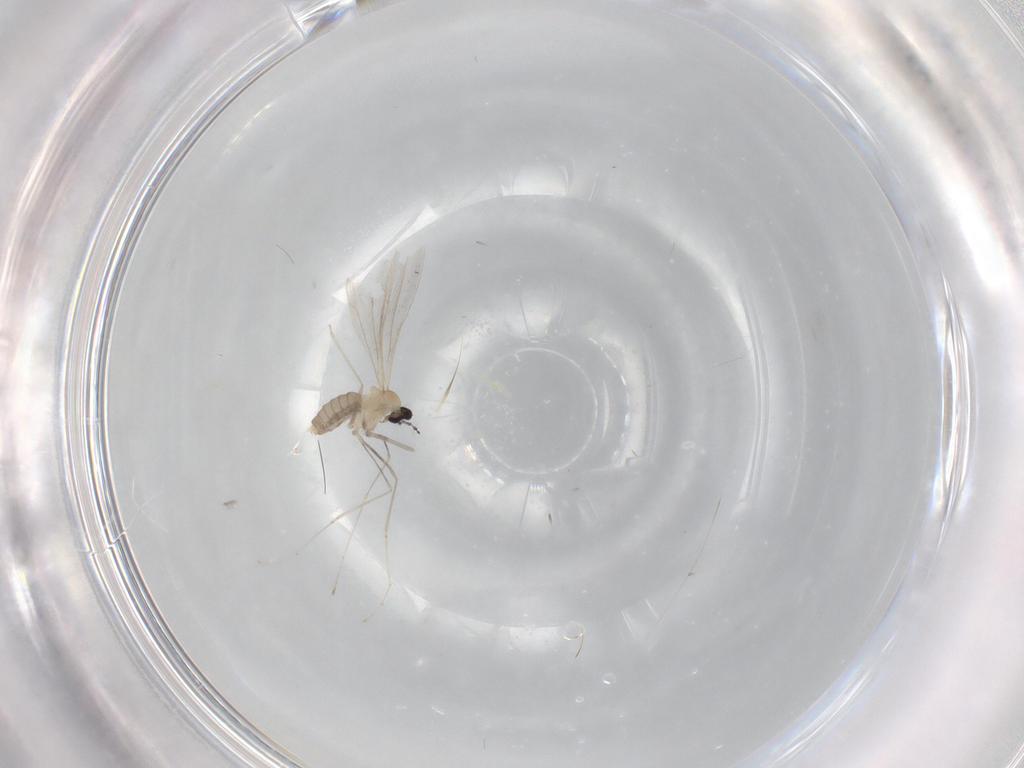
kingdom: Animalia
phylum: Arthropoda
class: Insecta
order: Diptera
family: Cecidomyiidae
